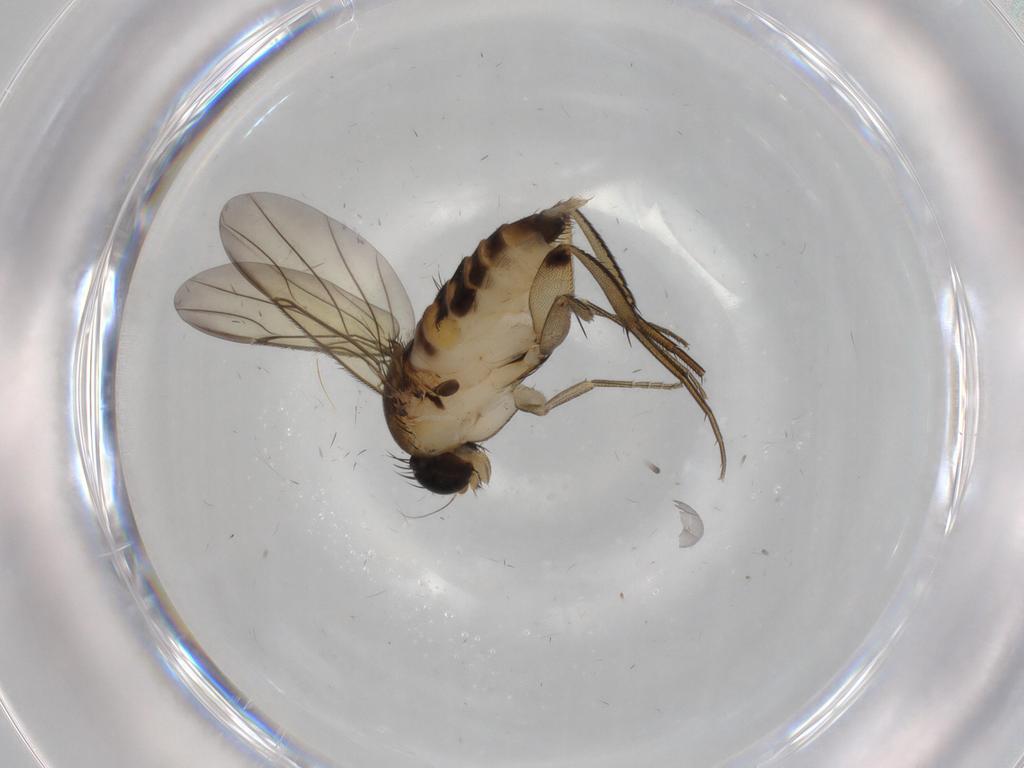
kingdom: Animalia
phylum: Arthropoda
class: Insecta
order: Diptera
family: Phoridae
